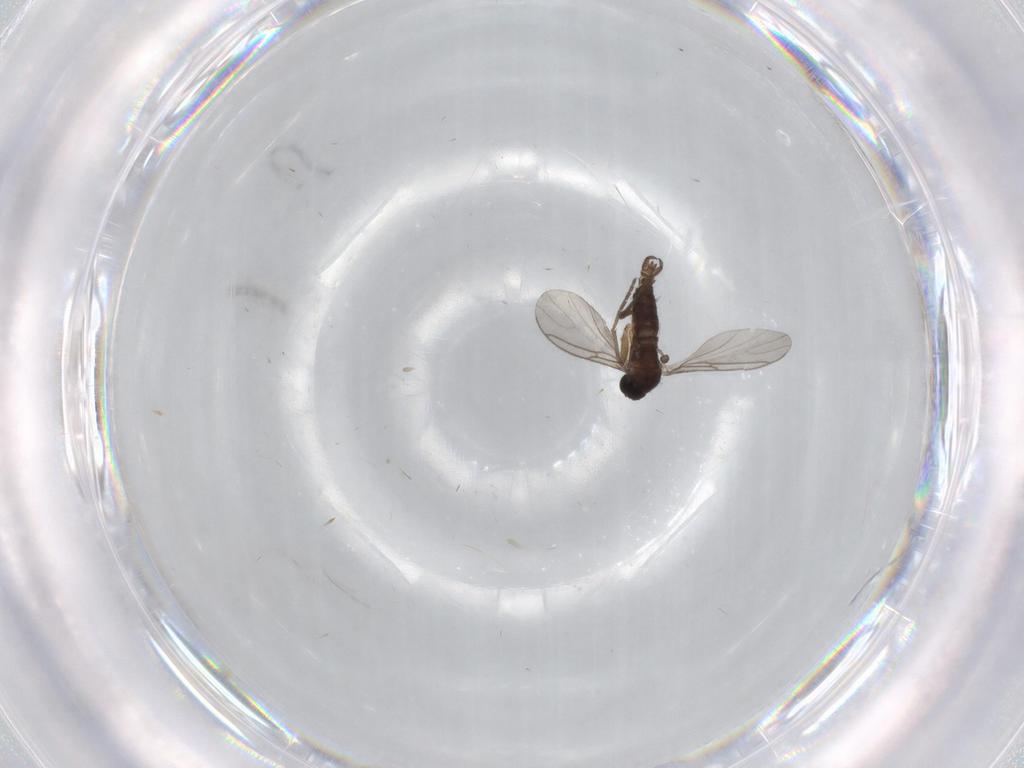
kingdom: Animalia
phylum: Arthropoda
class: Insecta
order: Diptera
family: Sciaridae
